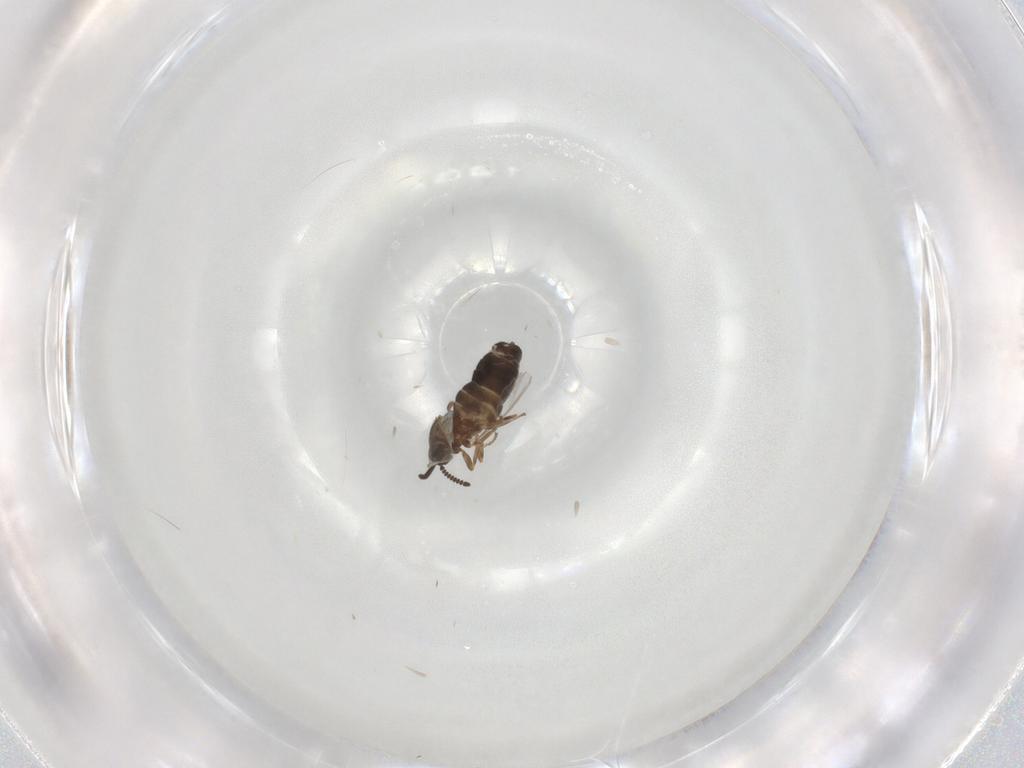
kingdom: Animalia
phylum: Arthropoda
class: Insecta
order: Diptera
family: Scatopsidae
